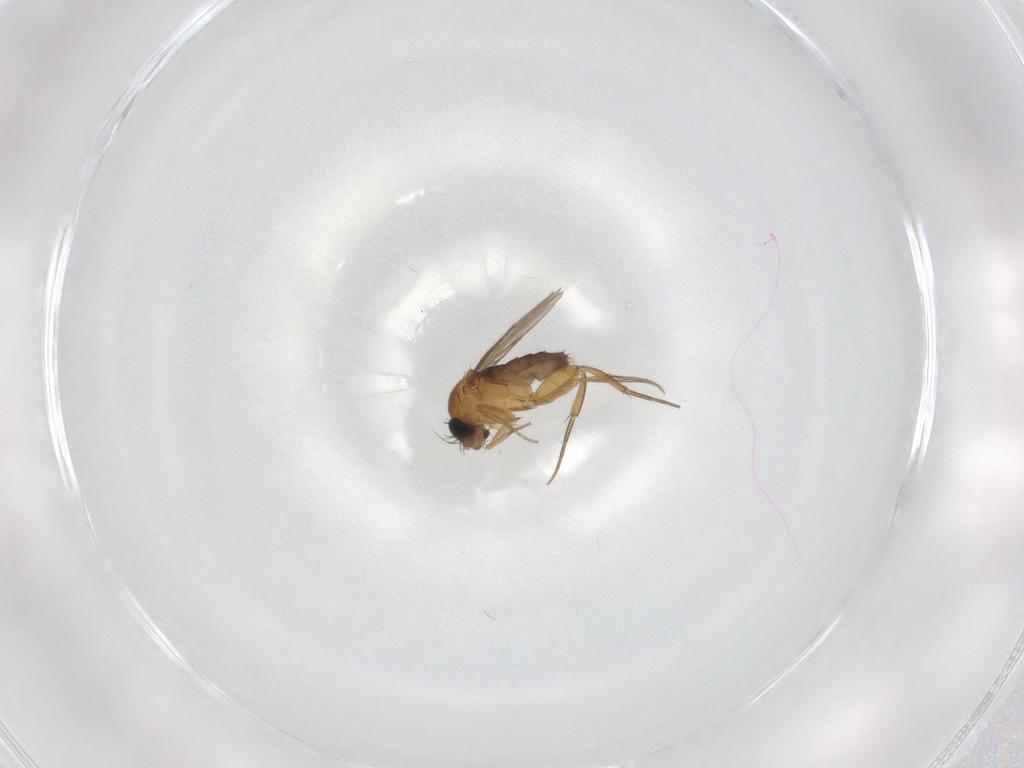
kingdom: Animalia
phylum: Arthropoda
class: Insecta
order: Diptera
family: Phoridae
